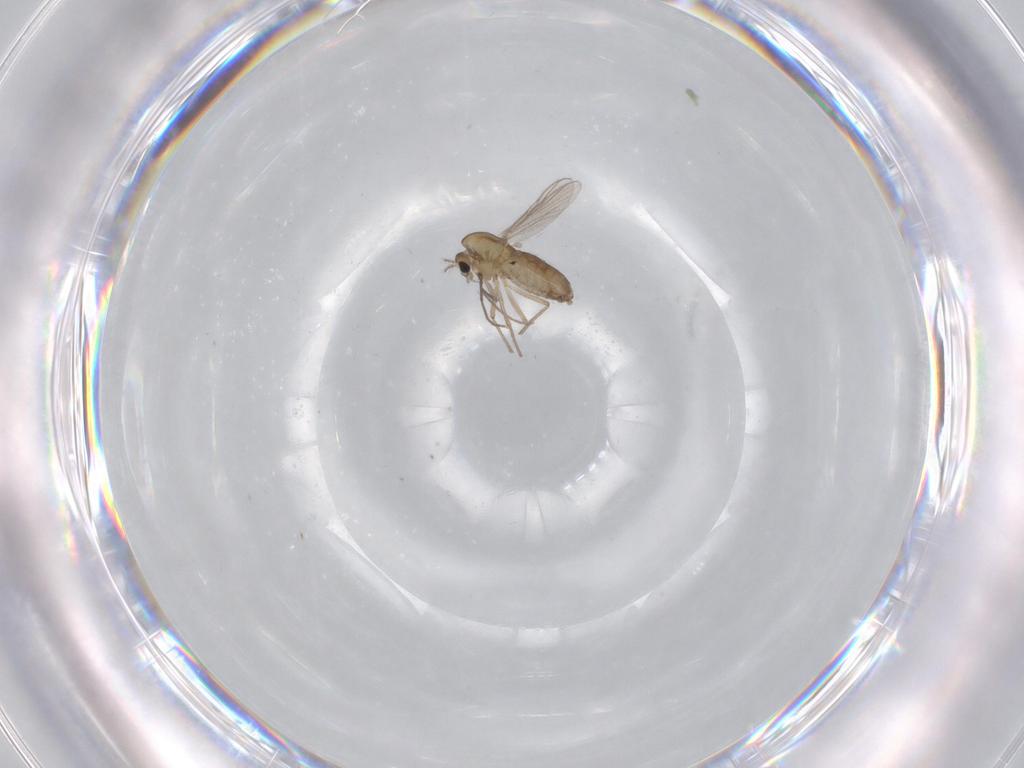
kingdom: Animalia
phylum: Arthropoda
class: Insecta
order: Diptera
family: Chironomidae
